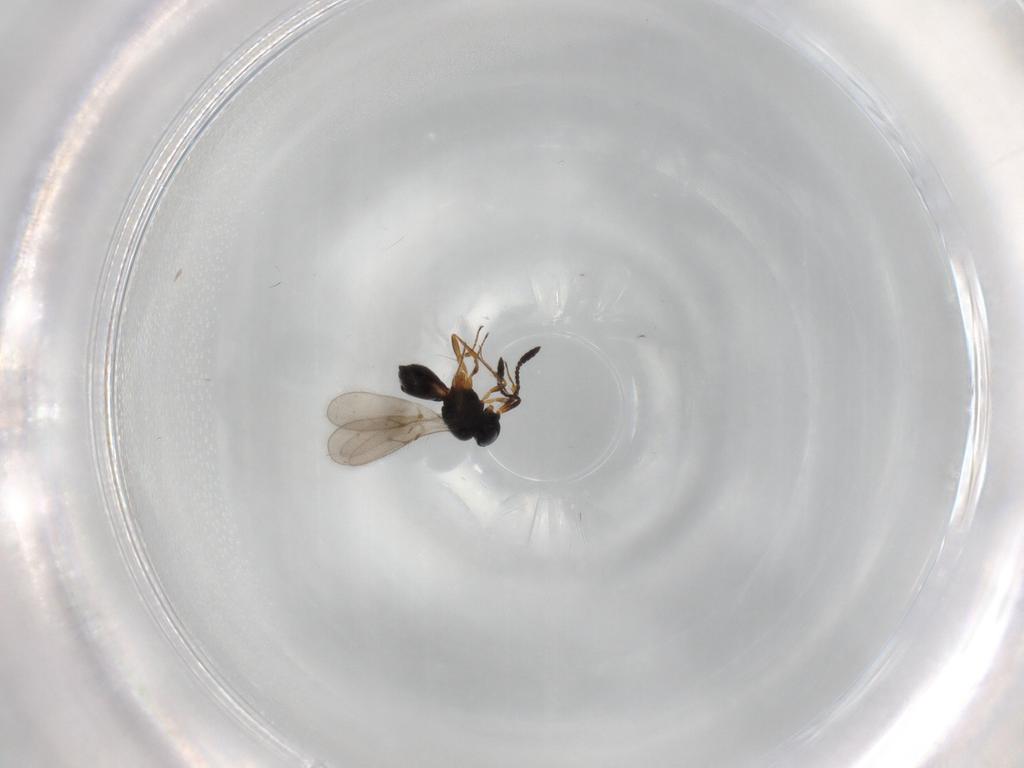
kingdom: Animalia
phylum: Arthropoda
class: Insecta
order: Hymenoptera
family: Scelionidae
